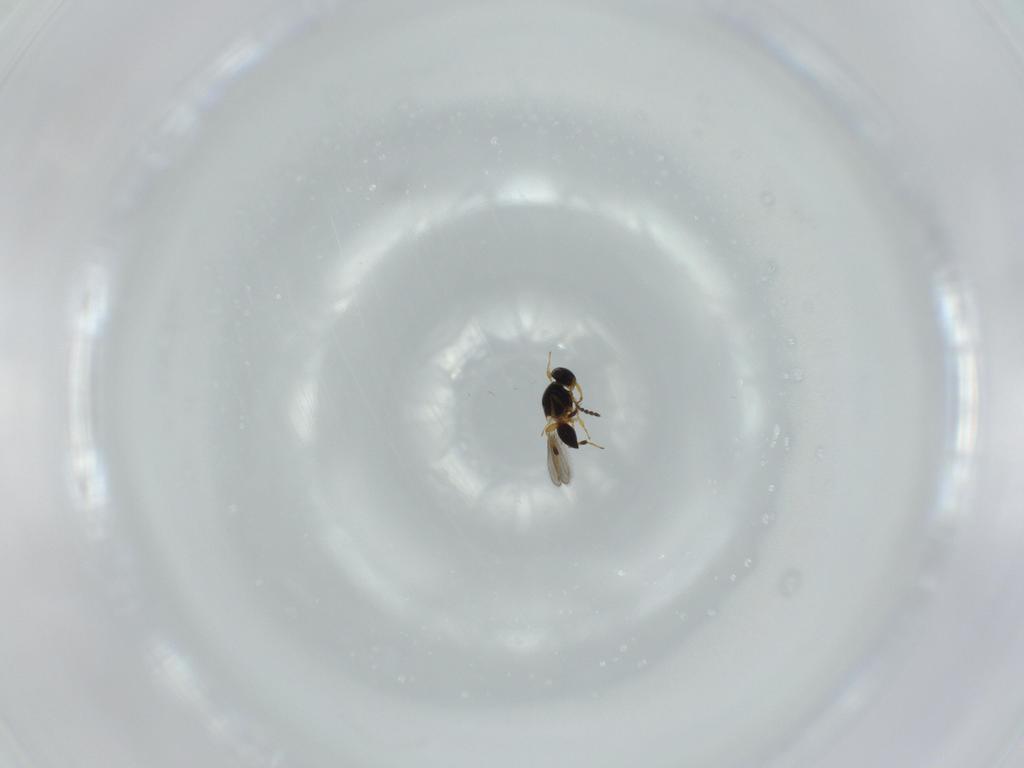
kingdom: Animalia
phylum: Arthropoda
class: Insecta
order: Hymenoptera
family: Platygastridae
